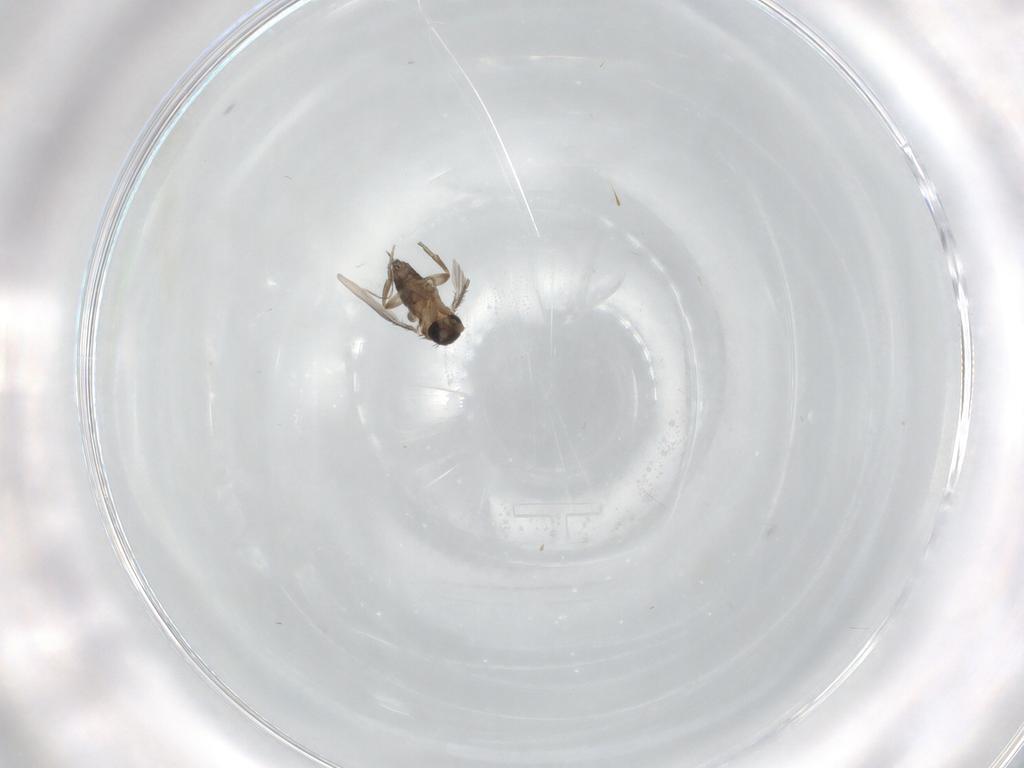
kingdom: Animalia
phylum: Arthropoda
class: Insecta
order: Diptera
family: Phoridae
